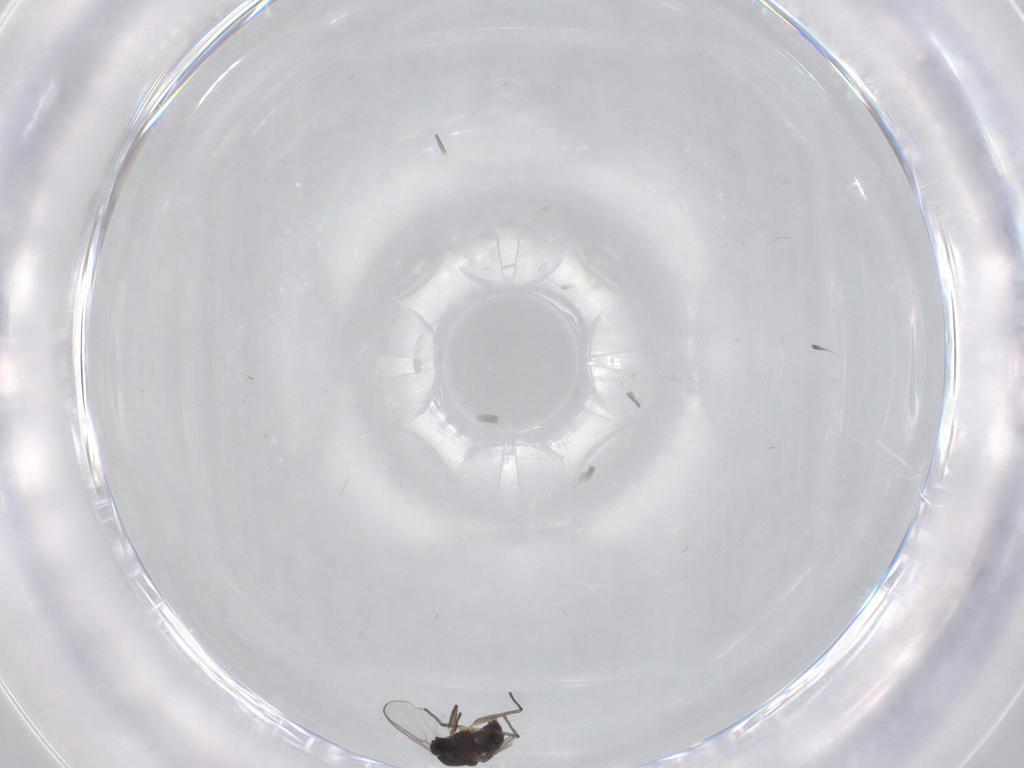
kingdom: Animalia
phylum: Arthropoda
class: Insecta
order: Diptera
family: Chironomidae
